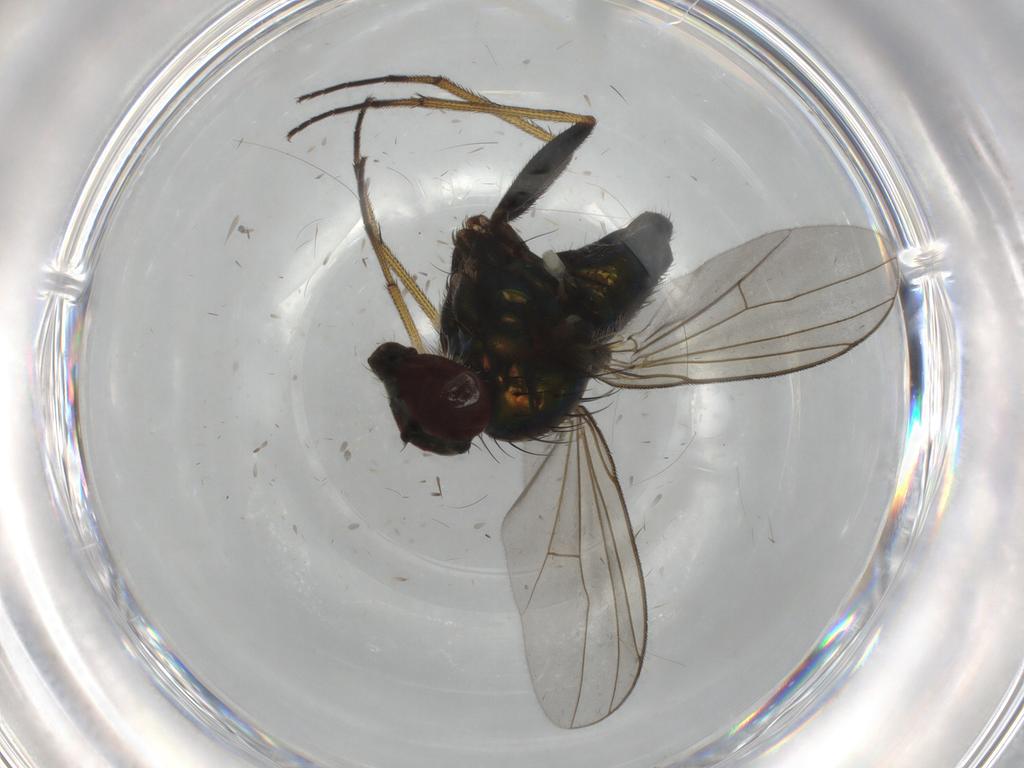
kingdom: Animalia
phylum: Arthropoda
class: Insecta
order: Diptera
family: Dolichopodidae
